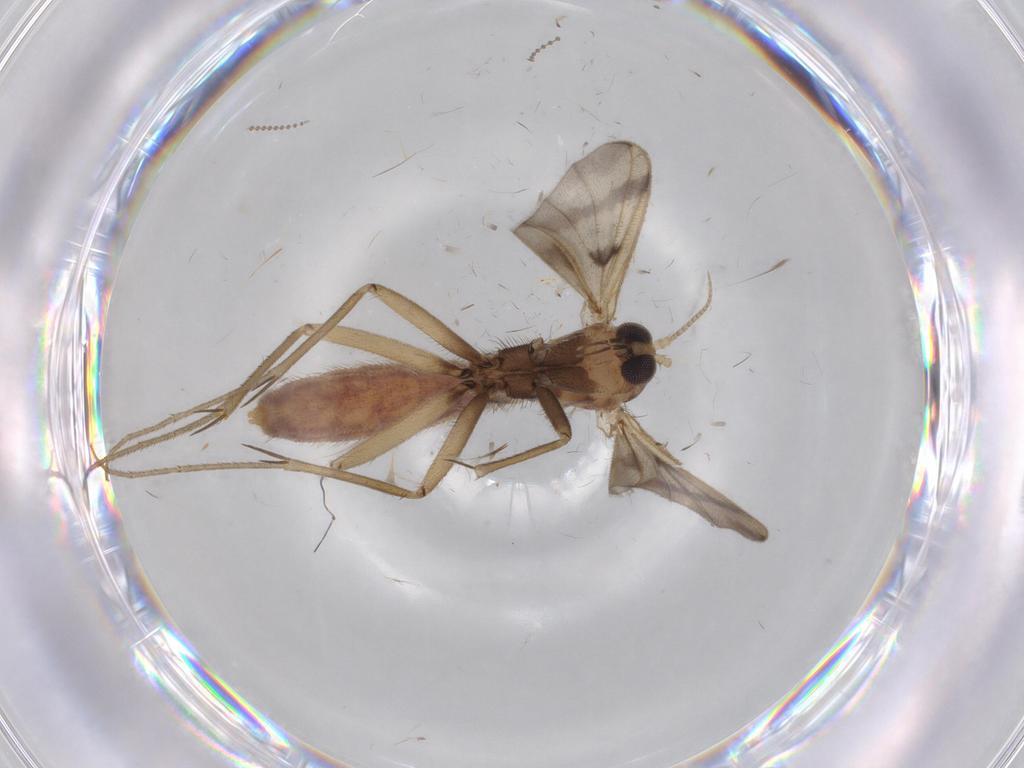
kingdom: Animalia
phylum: Arthropoda
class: Insecta
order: Diptera
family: Mycetophilidae
